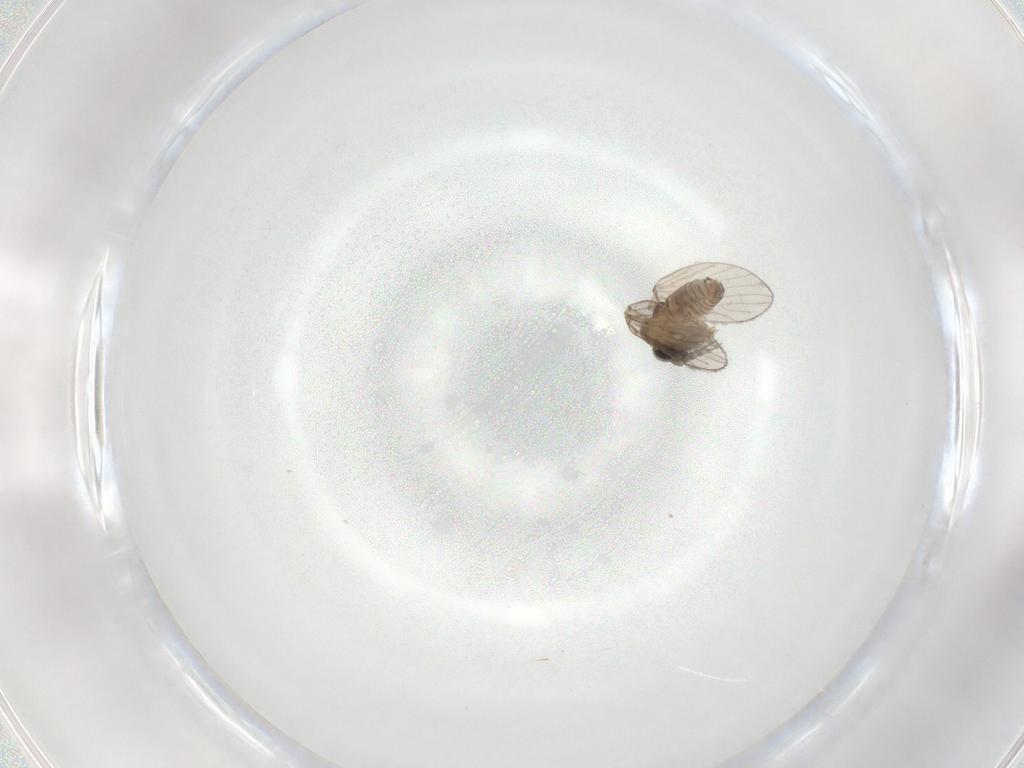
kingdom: Animalia
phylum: Arthropoda
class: Insecta
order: Diptera
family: Psychodidae
